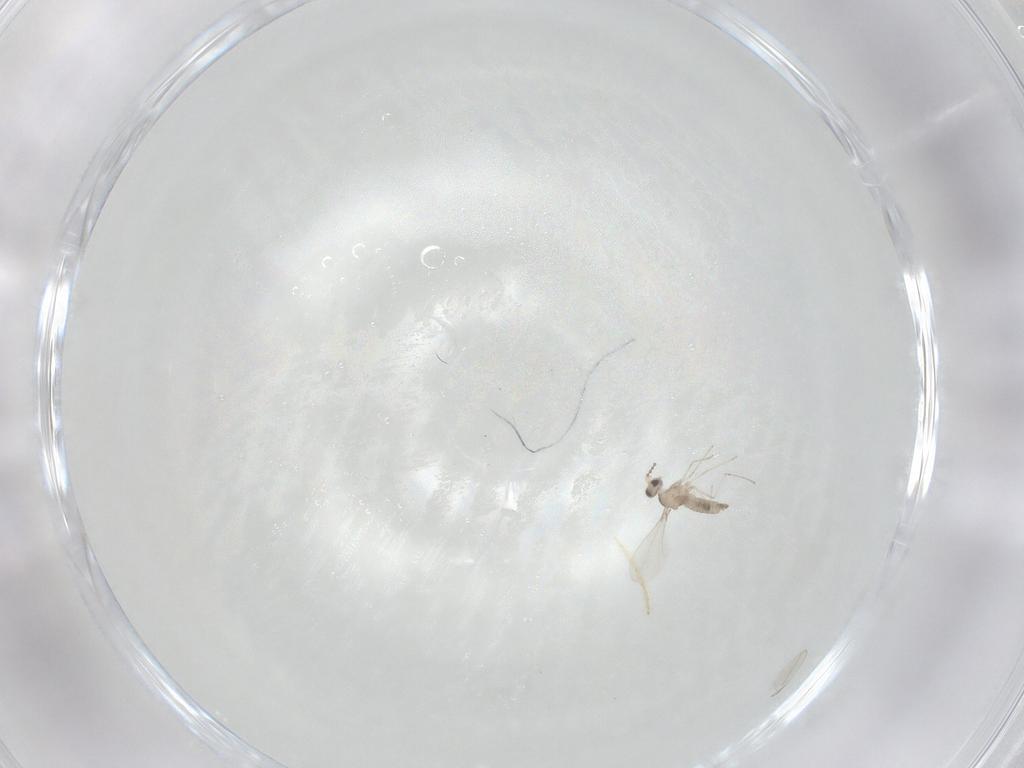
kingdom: Animalia
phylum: Arthropoda
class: Insecta
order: Diptera
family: Cecidomyiidae
